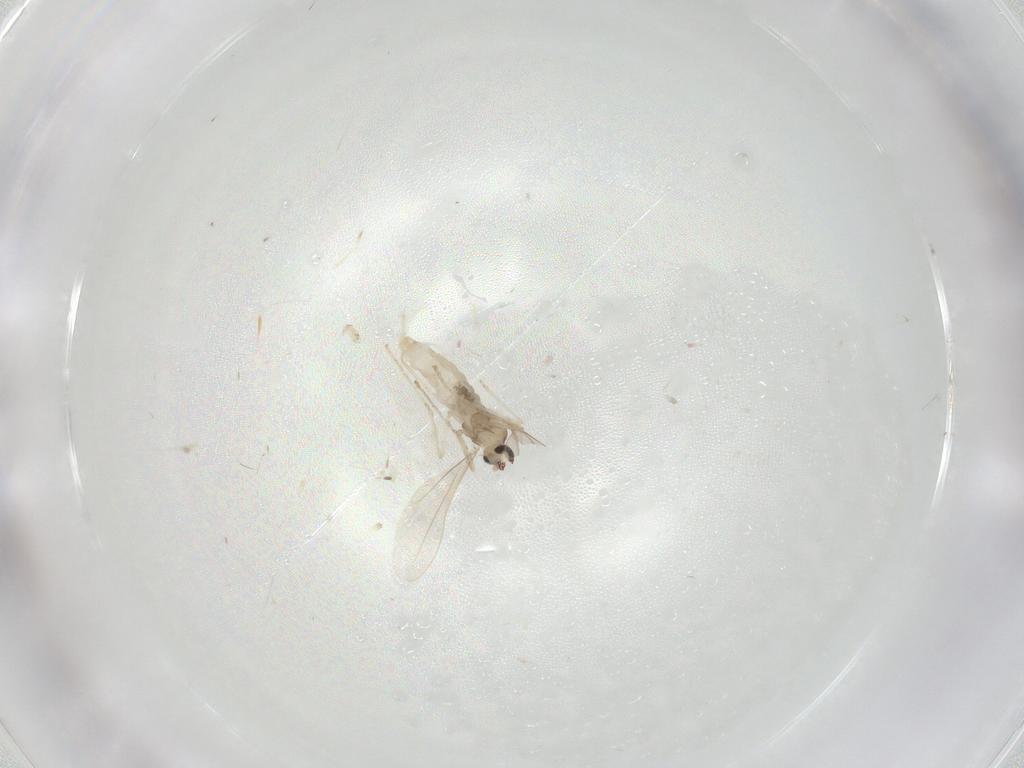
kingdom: Animalia
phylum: Arthropoda
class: Insecta
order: Diptera
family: Cecidomyiidae
